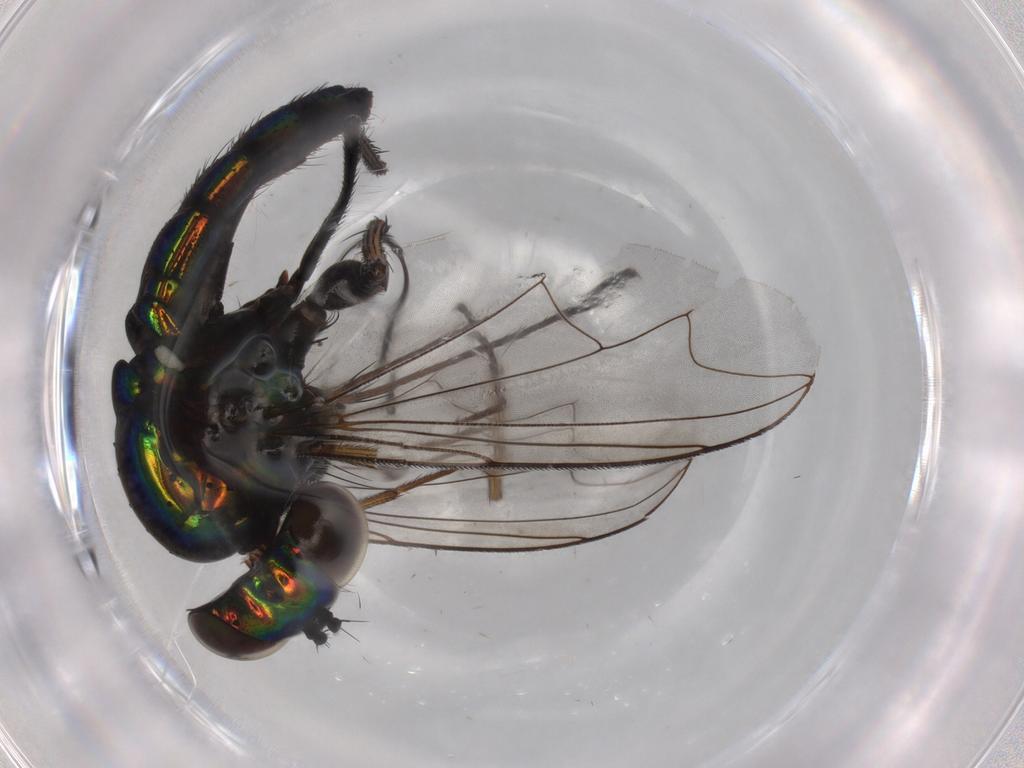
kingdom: Animalia
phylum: Arthropoda
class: Insecta
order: Diptera
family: Dolichopodidae
